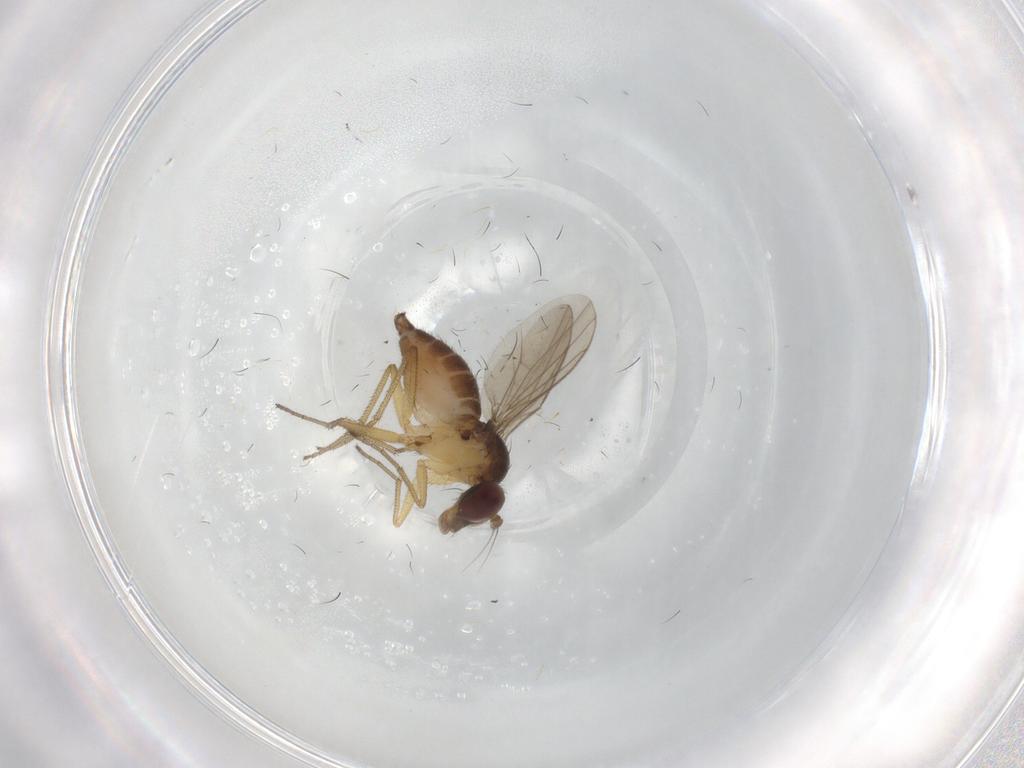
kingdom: Animalia
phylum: Arthropoda
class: Insecta
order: Diptera
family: Dolichopodidae
